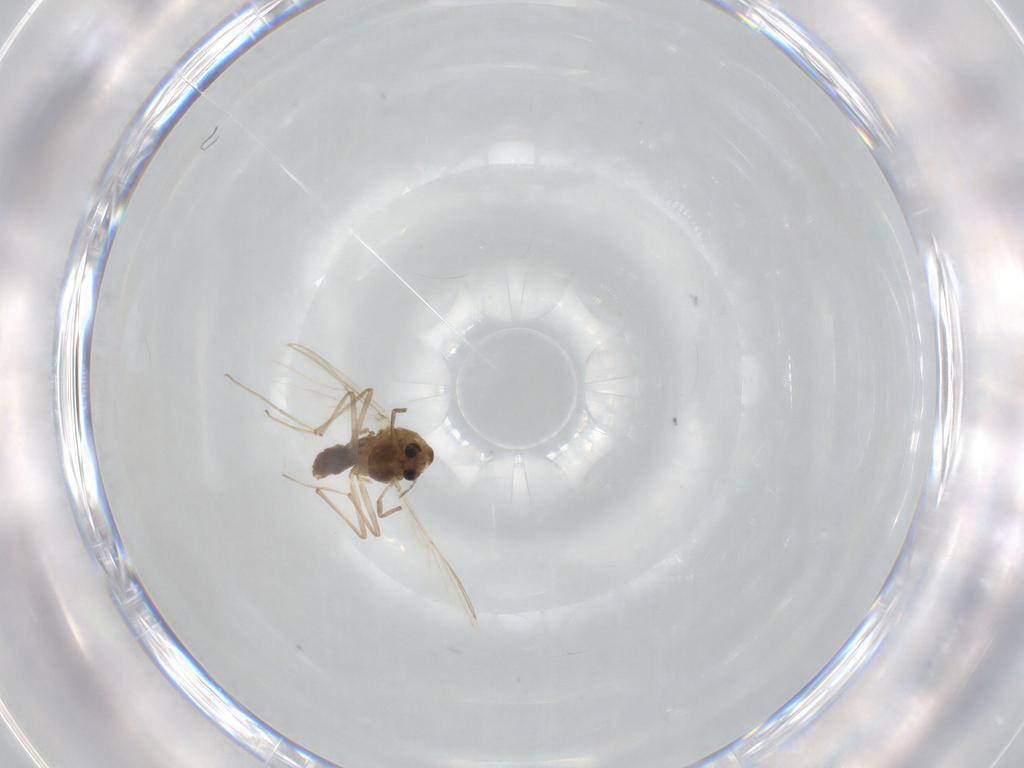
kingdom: Animalia
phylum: Arthropoda
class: Insecta
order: Diptera
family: Chironomidae
